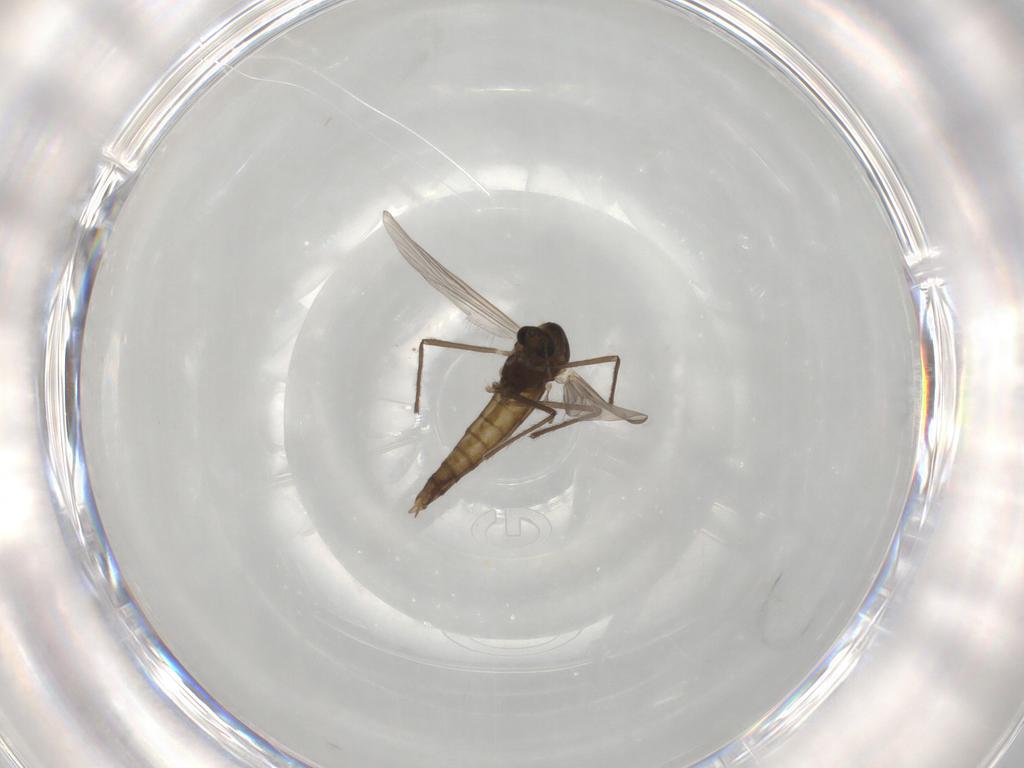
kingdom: Animalia
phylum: Arthropoda
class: Insecta
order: Diptera
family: Chironomidae
